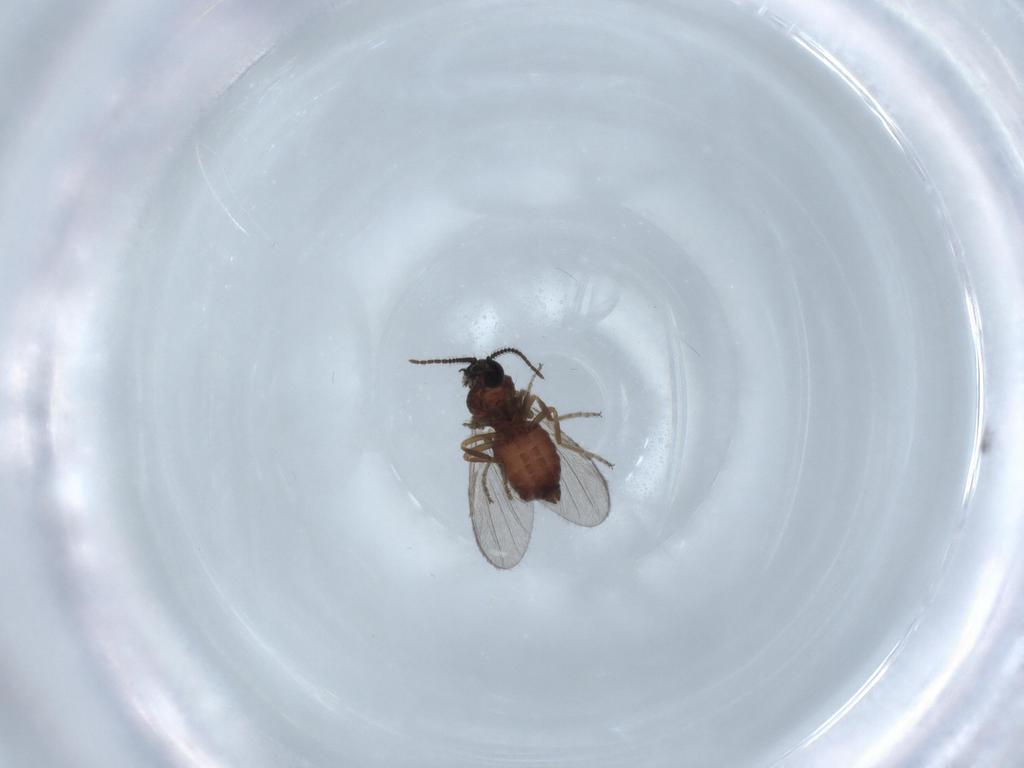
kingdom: Animalia
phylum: Arthropoda
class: Insecta
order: Diptera
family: Ceratopogonidae
